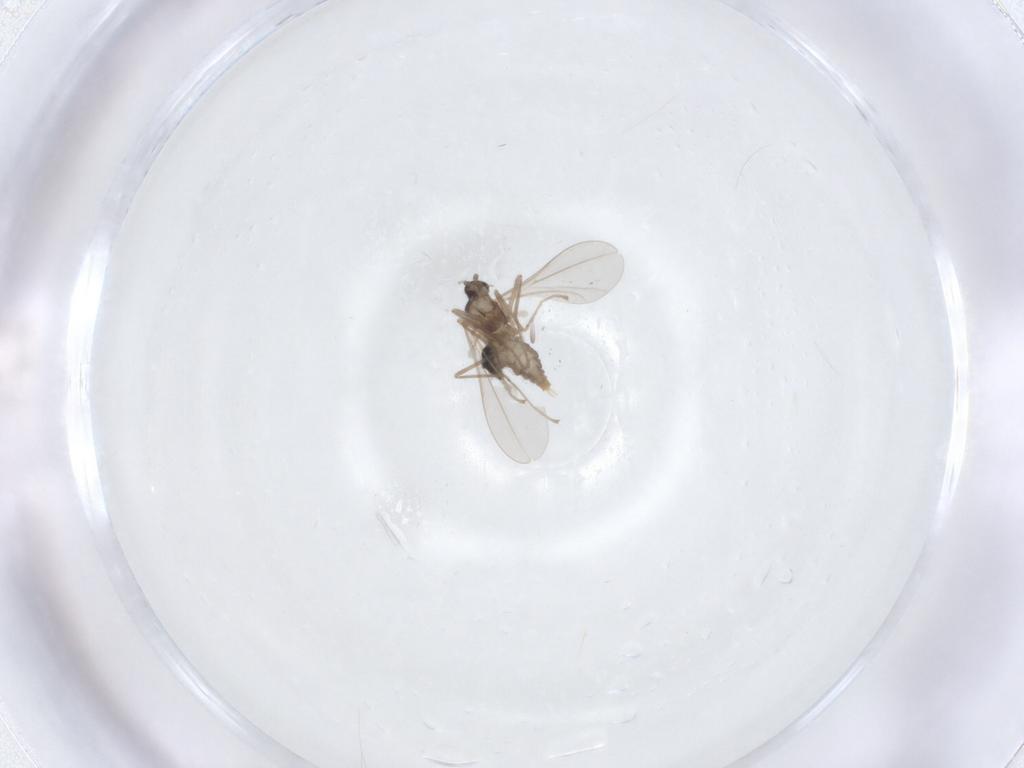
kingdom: Animalia
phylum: Arthropoda
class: Insecta
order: Diptera
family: Cecidomyiidae
